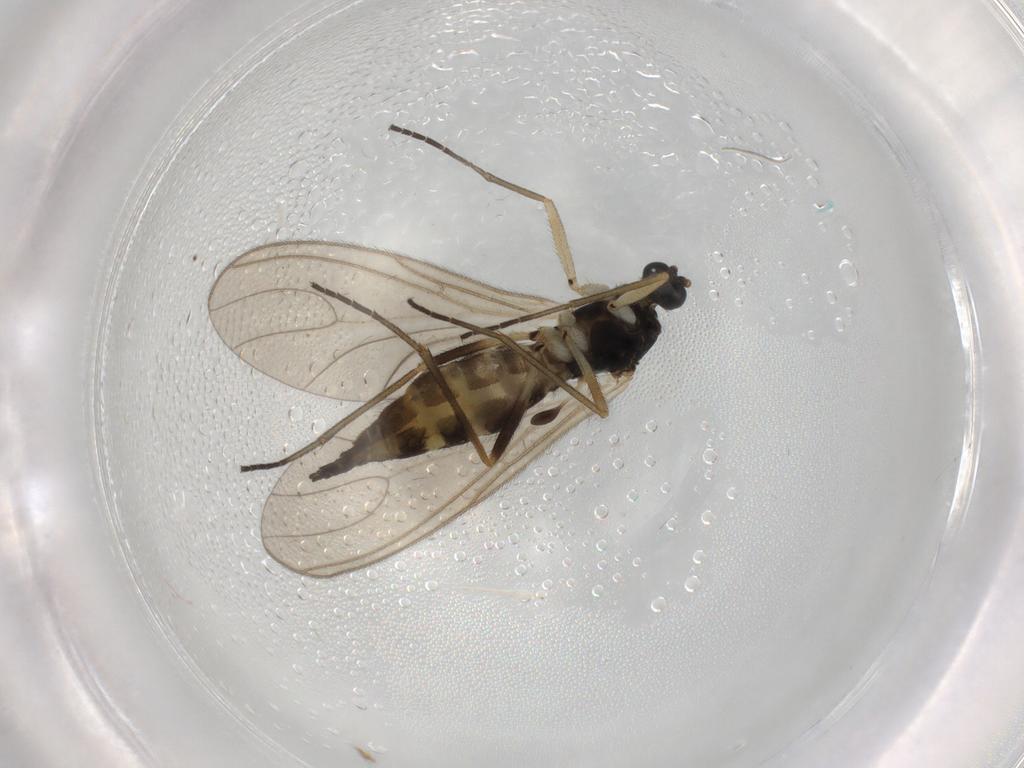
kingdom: Animalia
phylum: Arthropoda
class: Insecta
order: Diptera
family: Sciaridae
